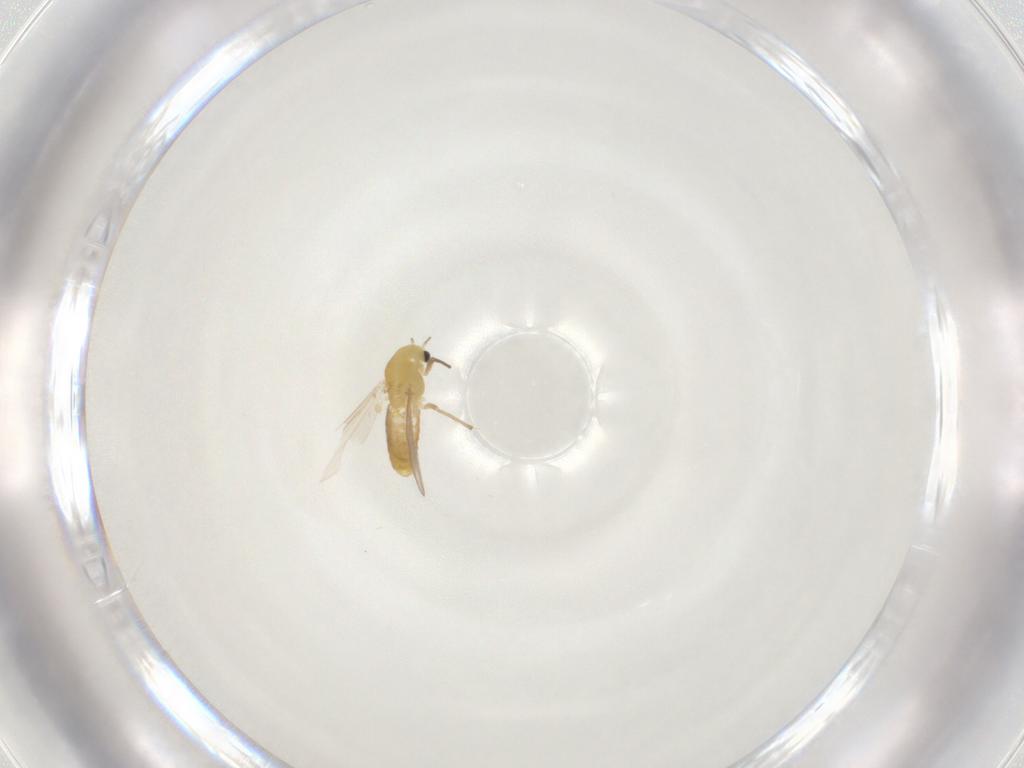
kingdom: Animalia
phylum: Arthropoda
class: Insecta
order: Diptera
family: Chironomidae
